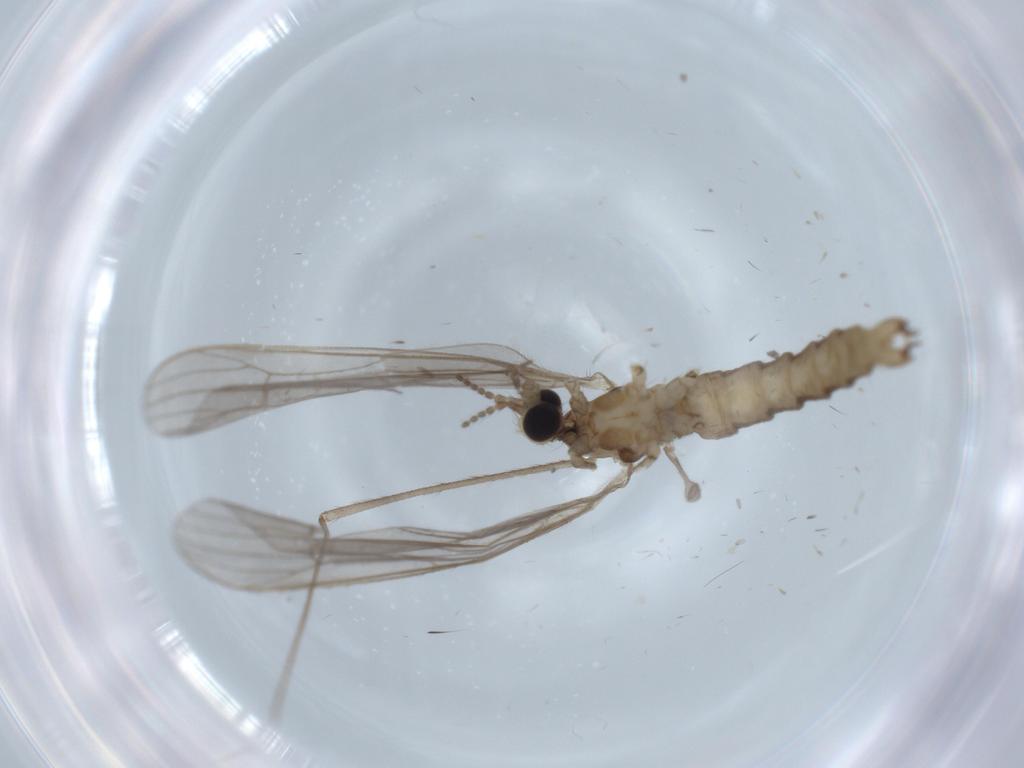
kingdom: Animalia
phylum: Arthropoda
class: Insecta
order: Diptera
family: Limoniidae
